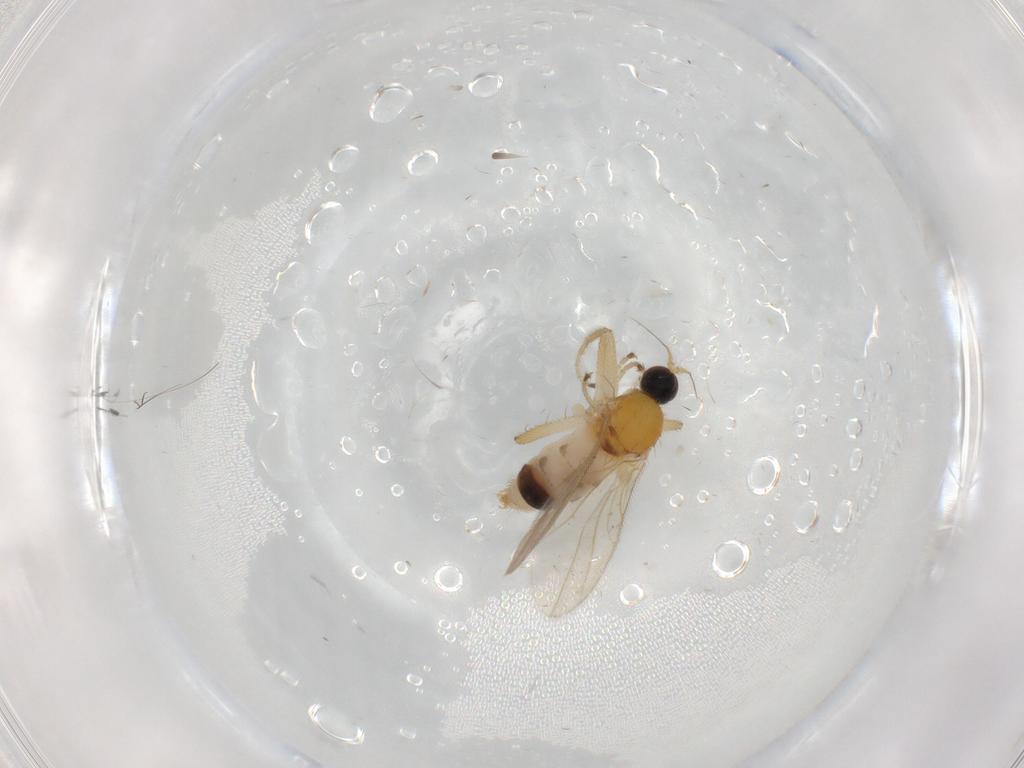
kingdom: Animalia
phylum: Arthropoda
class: Insecta
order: Diptera
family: Hybotidae
